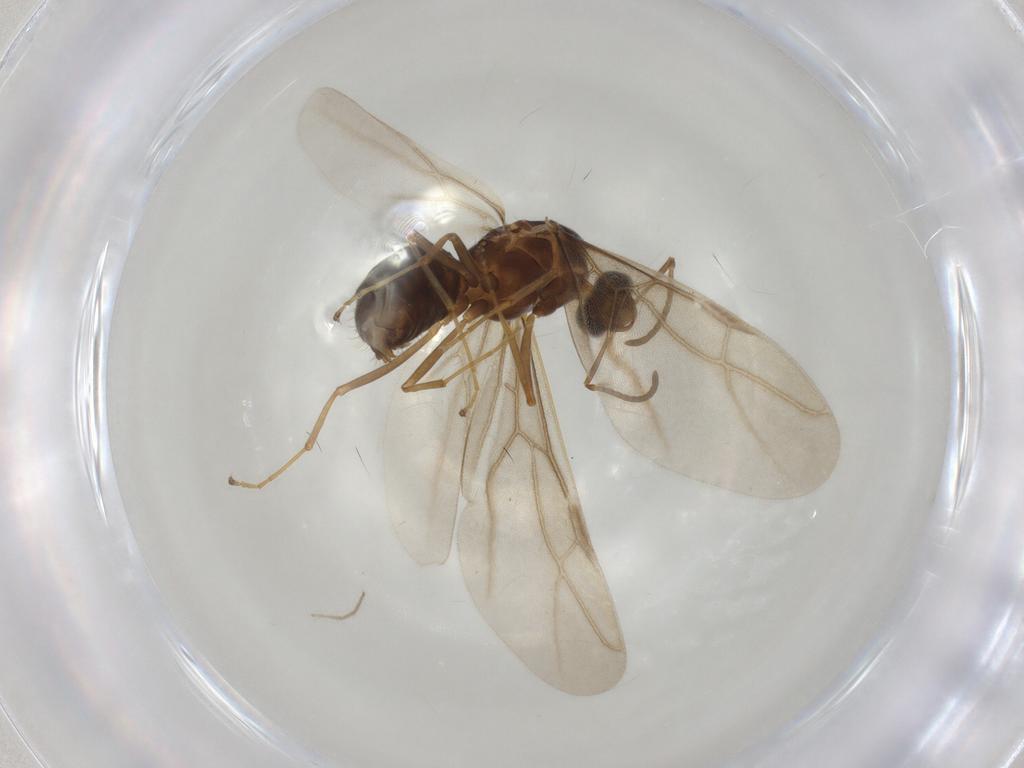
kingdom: Animalia
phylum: Arthropoda
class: Insecta
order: Hymenoptera
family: Formicidae
